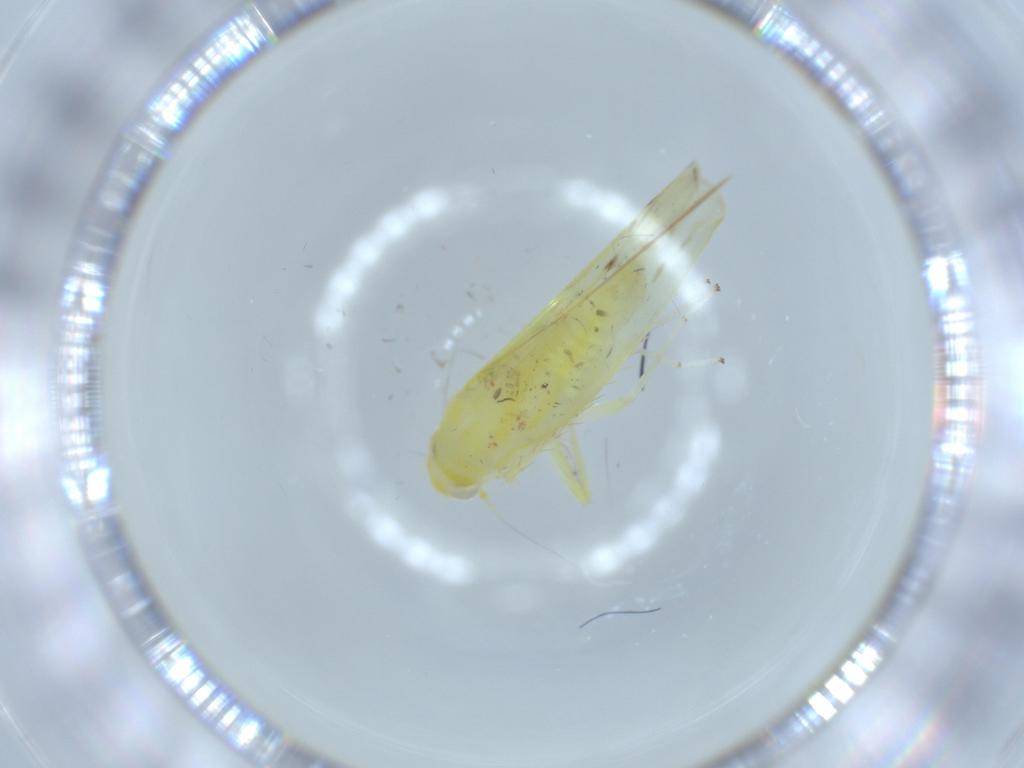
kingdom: Animalia
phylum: Arthropoda
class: Insecta
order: Hemiptera
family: Cicadellidae
